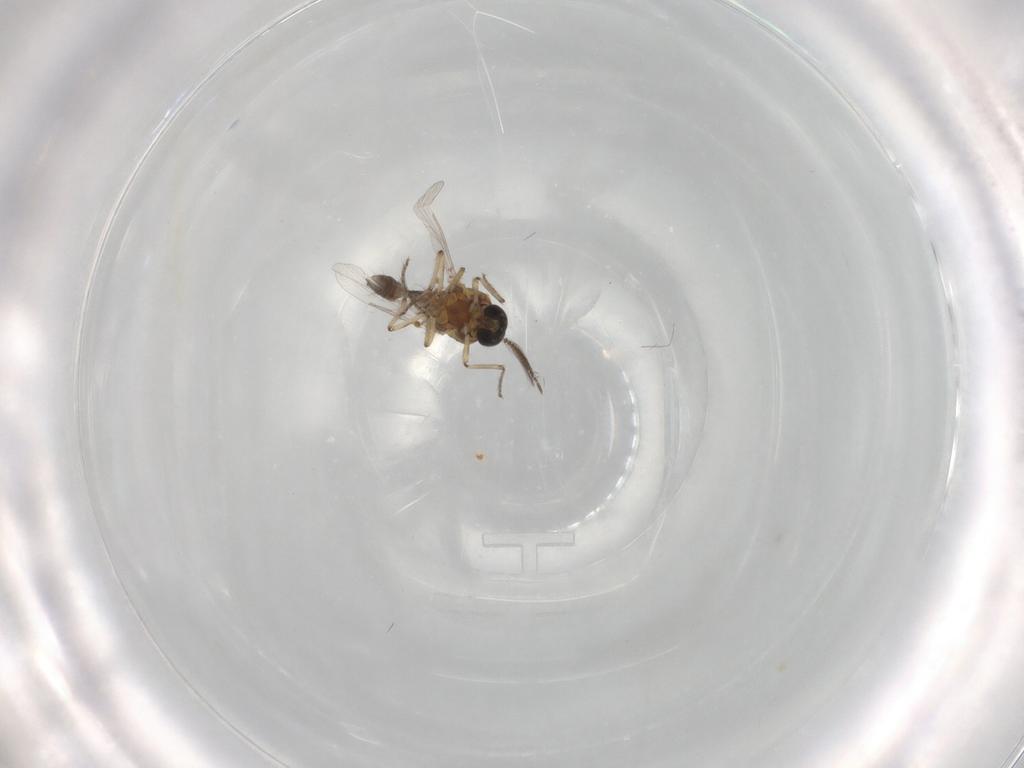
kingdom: Animalia
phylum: Arthropoda
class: Insecta
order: Diptera
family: Ceratopogonidae
